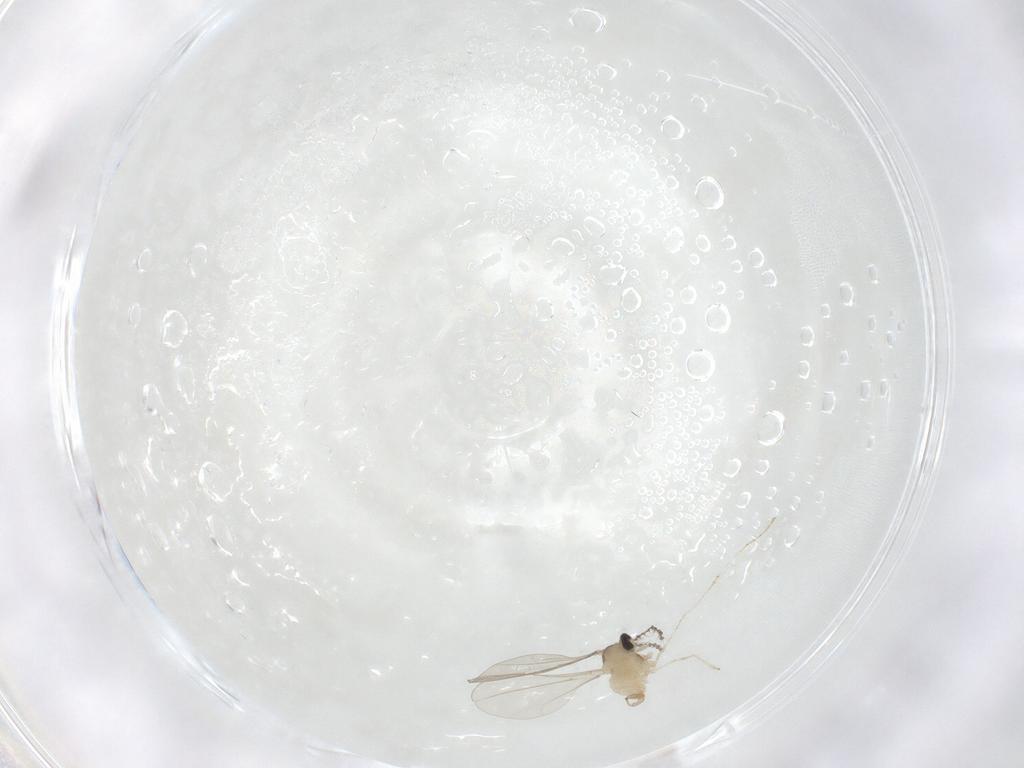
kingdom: Animalia
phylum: Arthropoda
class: Insecta
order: Diptera
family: Cecidomyiidae
